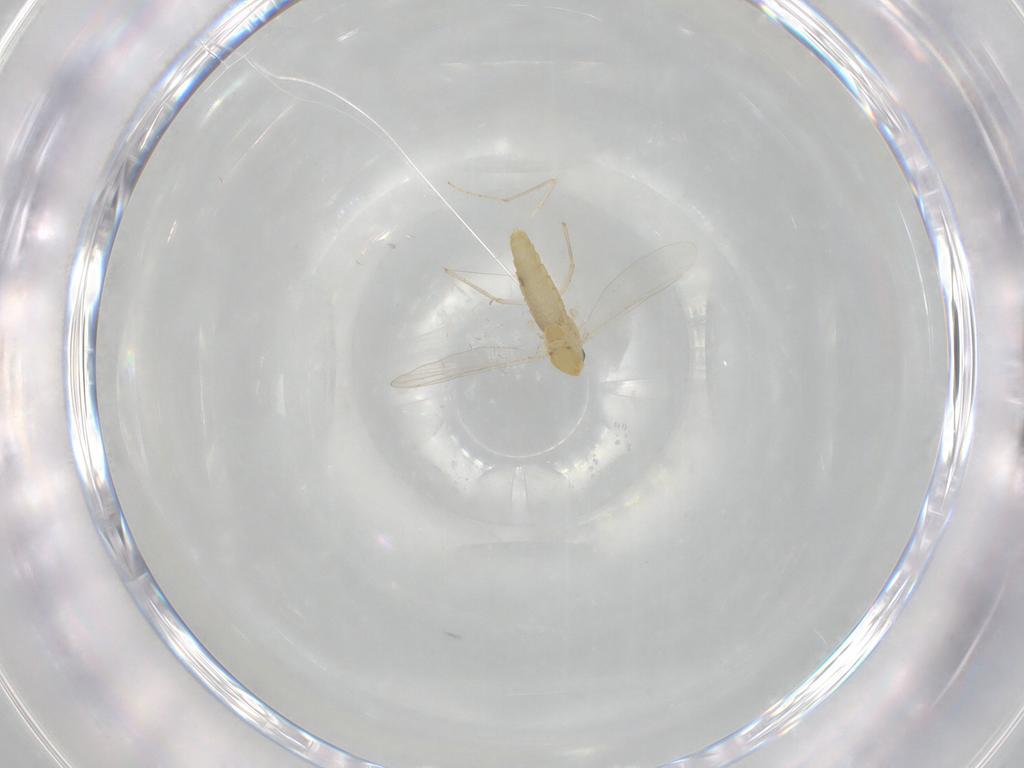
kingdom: Animalia
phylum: Arthropoda
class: Insecta
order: Diptera
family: Chironomidae
